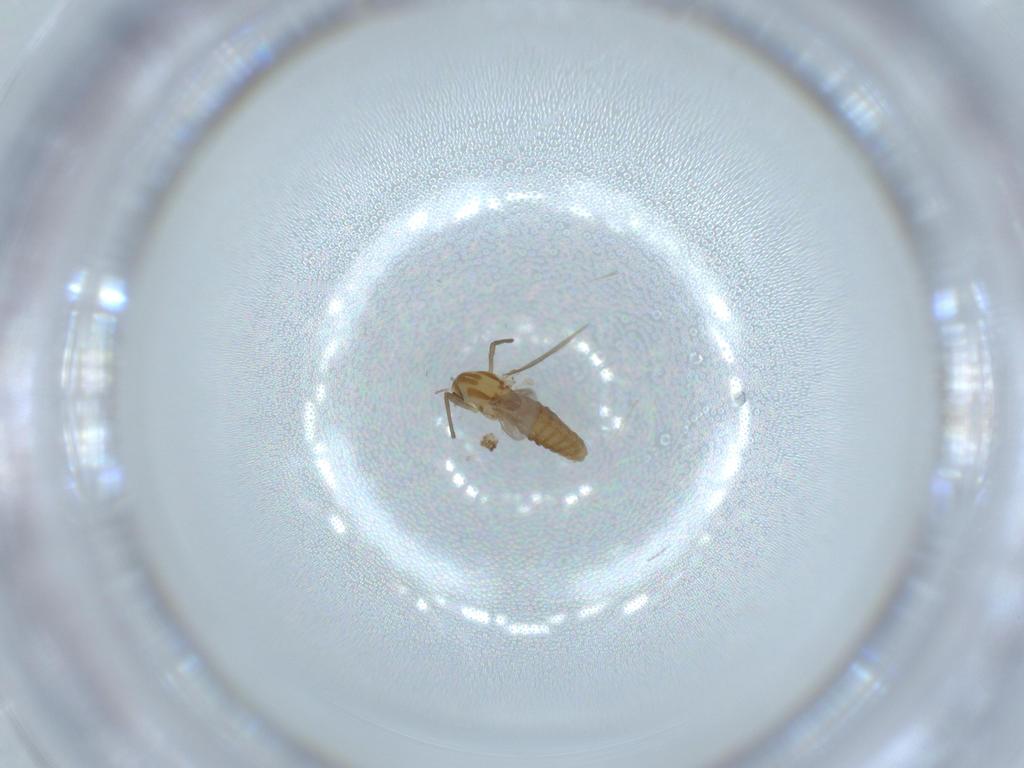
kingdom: Animalia
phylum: Arthropoda
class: Insecta
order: Diptera
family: Chironomidae
